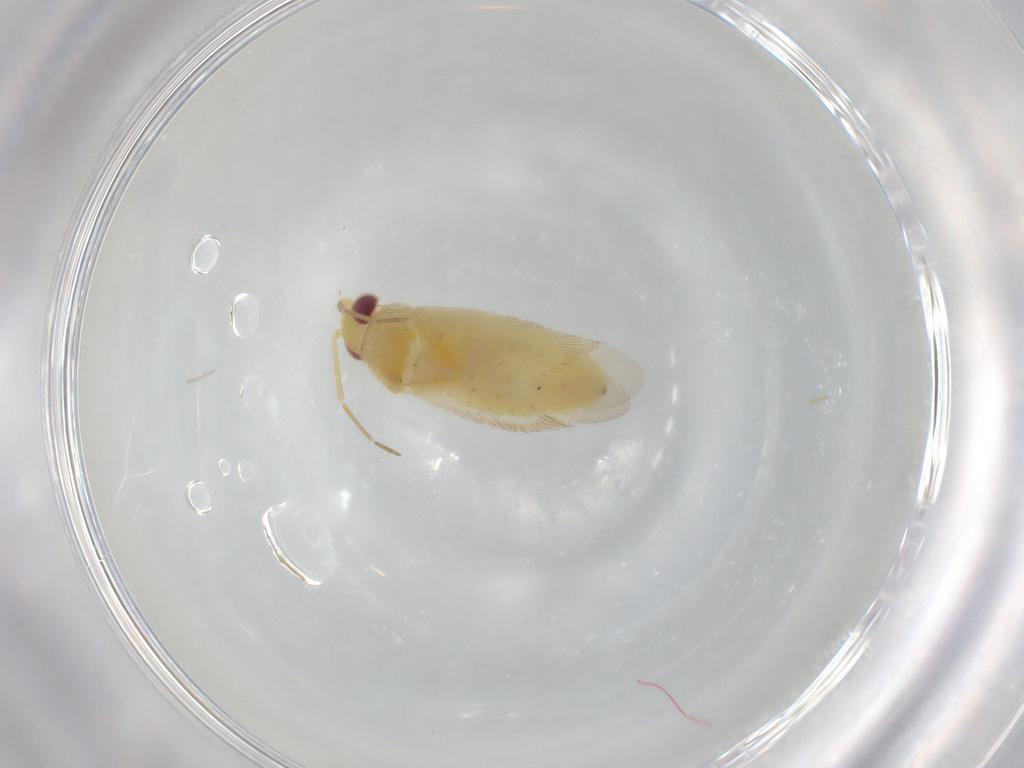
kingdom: Animalia
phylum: Arthropoda
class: Insecta
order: Hemiptera
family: Miridae
